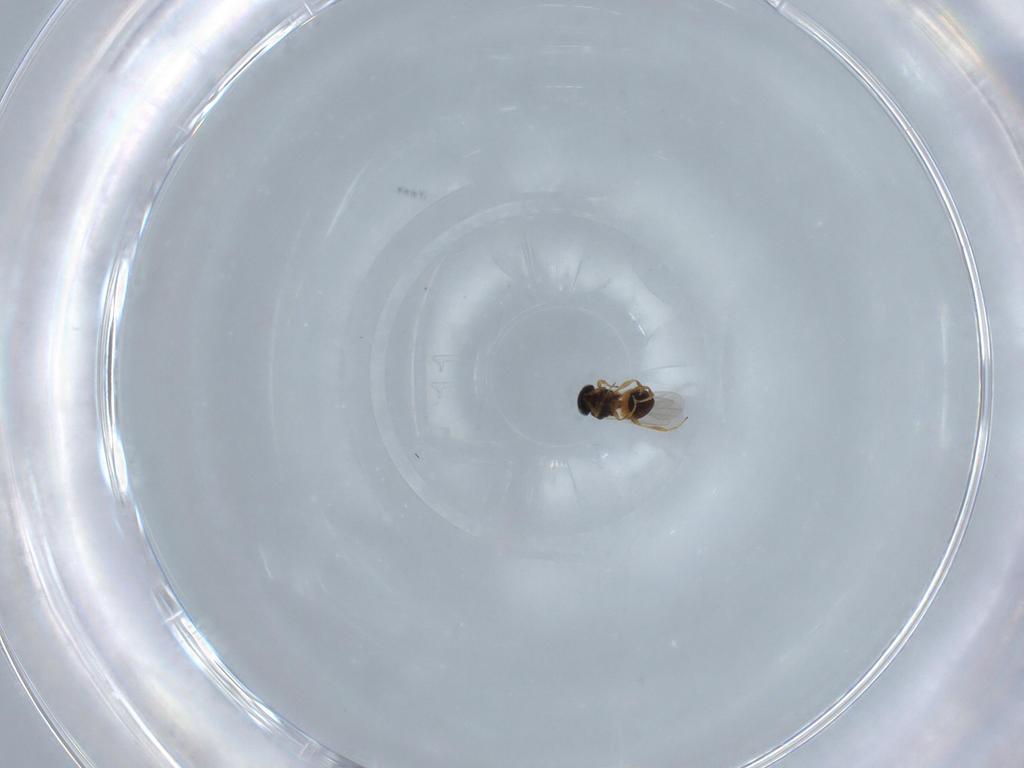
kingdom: Animalia
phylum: Arthropoda
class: Insecta
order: Hymenoptera
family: Platygastridae
